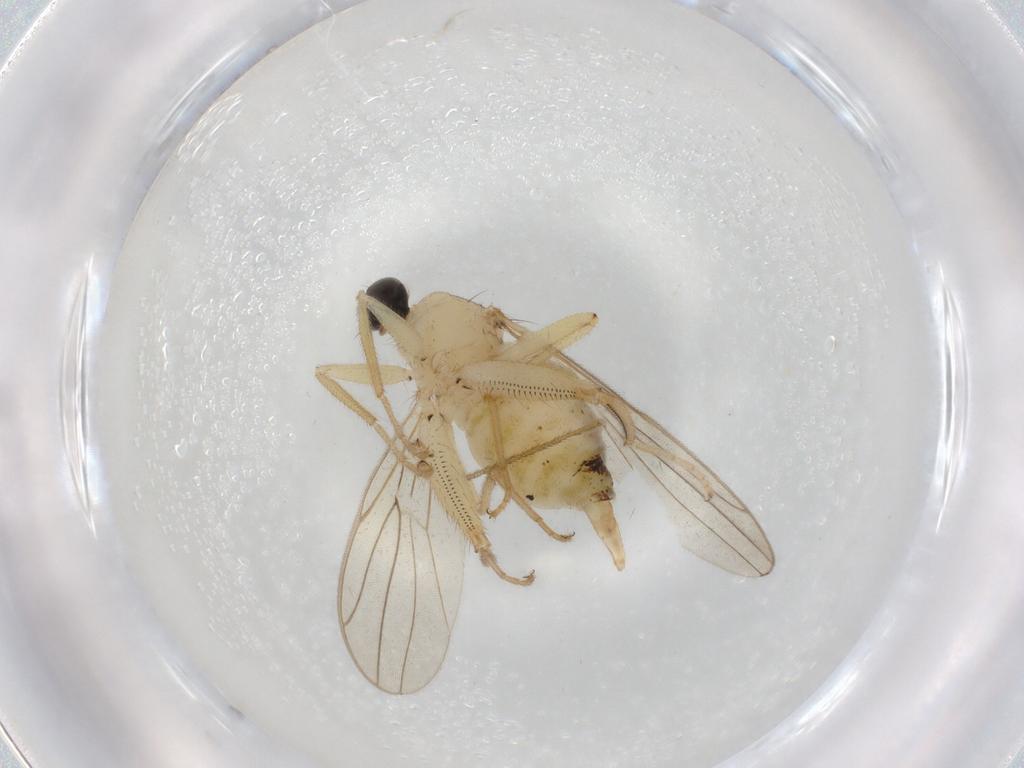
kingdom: Animalia
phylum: Arthropoda
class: Insecta
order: Diptera
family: Hybotidae
